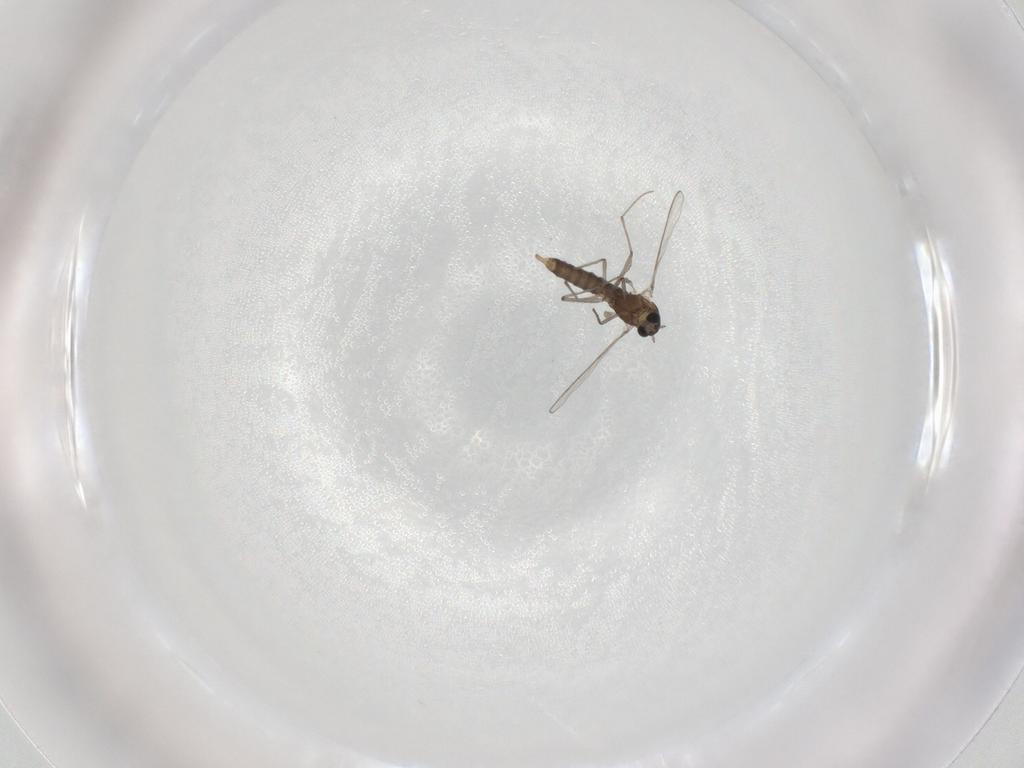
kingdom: Animalia
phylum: Arthropoda
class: Insecta
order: Diptera
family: Chironomidae
